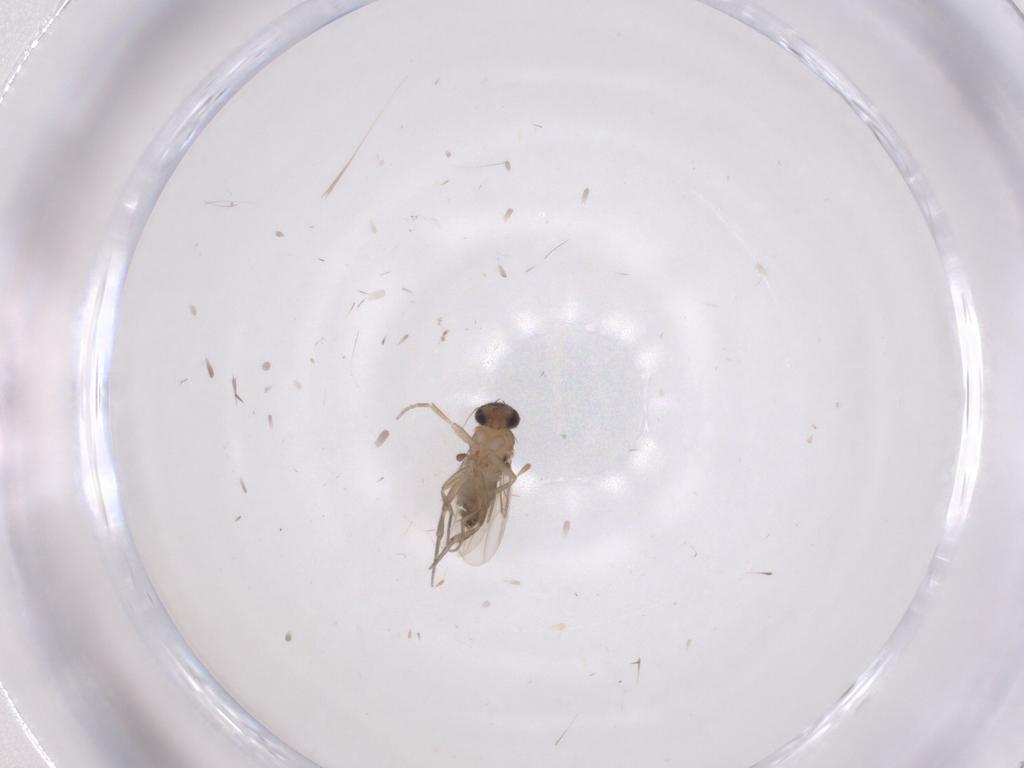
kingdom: Animalia
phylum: Arthropoda
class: Insecta
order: Diptera
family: Phoridae
